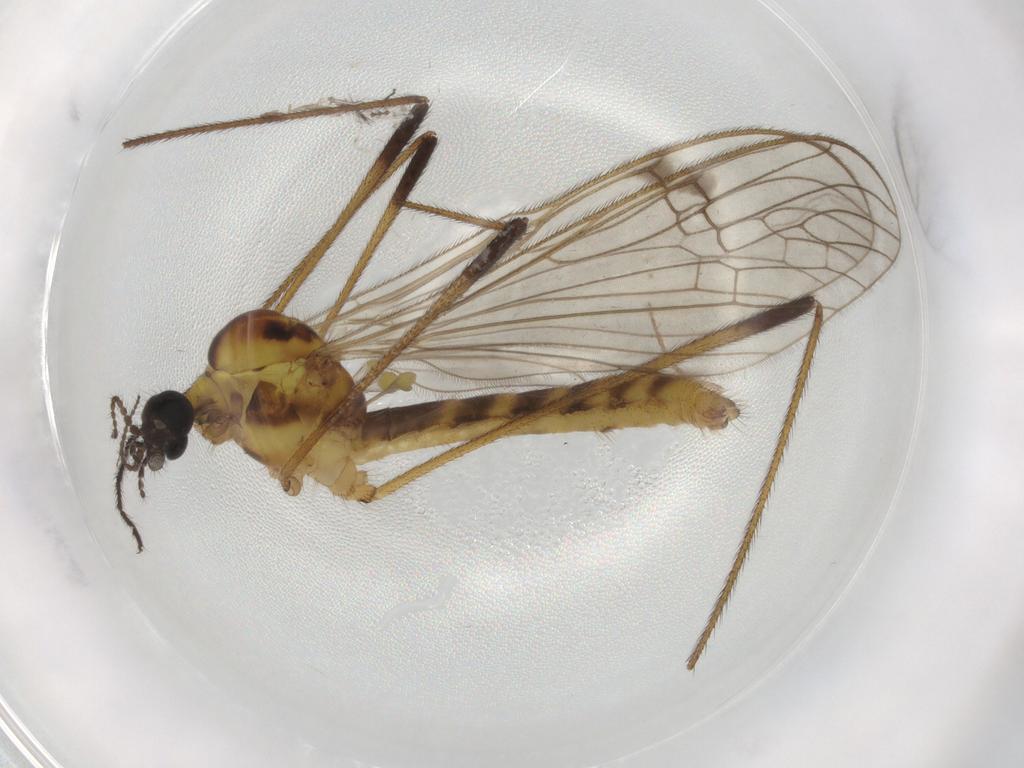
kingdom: Animalia
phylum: Arthropoda
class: Insecta
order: Diptera
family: Limoniidae
